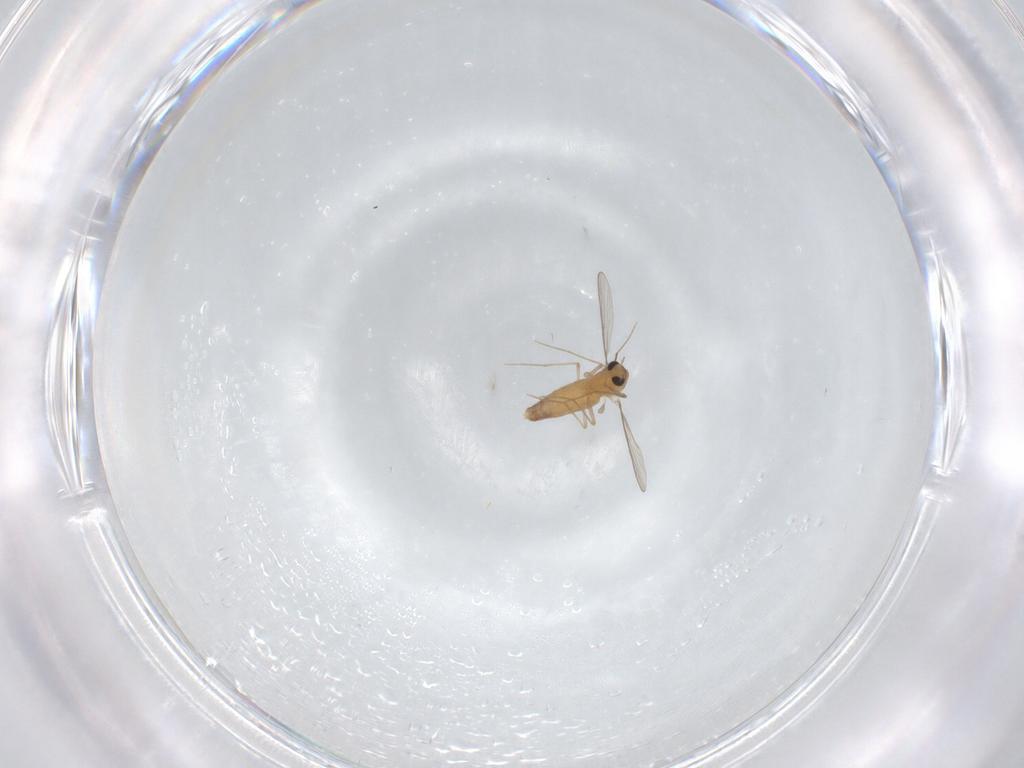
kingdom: Animalia
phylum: Arthropoda
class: Insecta
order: Diptera
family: Chironomidae
